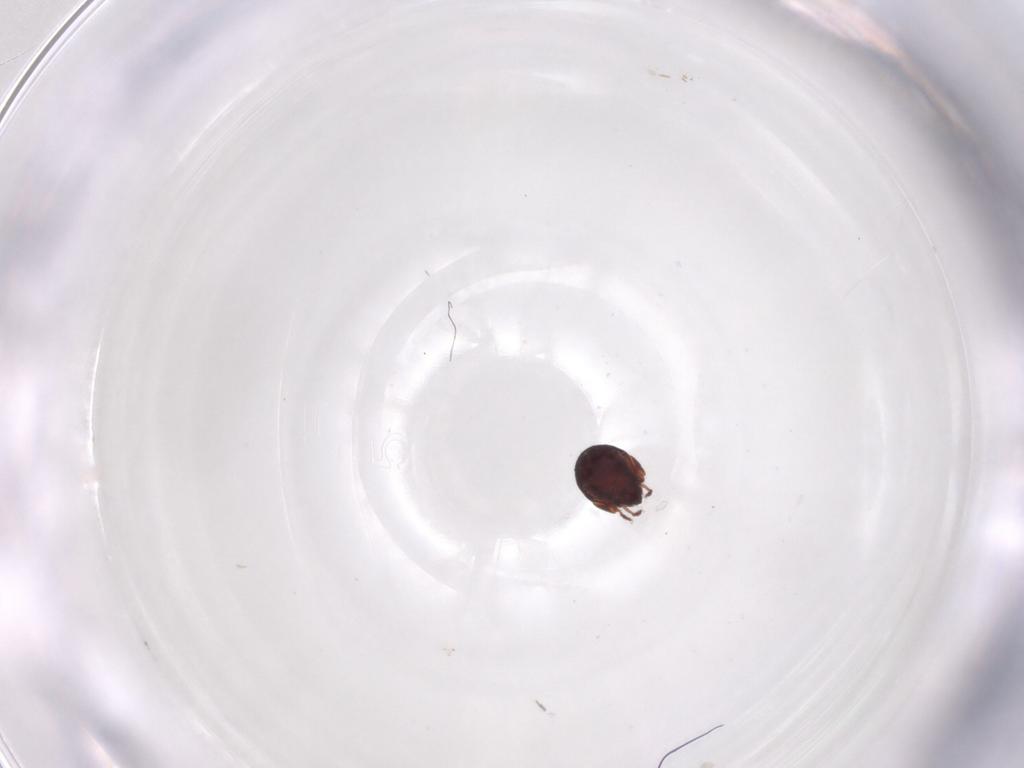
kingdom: Animalia
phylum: Arthropoda
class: Arachnida
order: Sarcoptiformes
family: Humerobatidae
